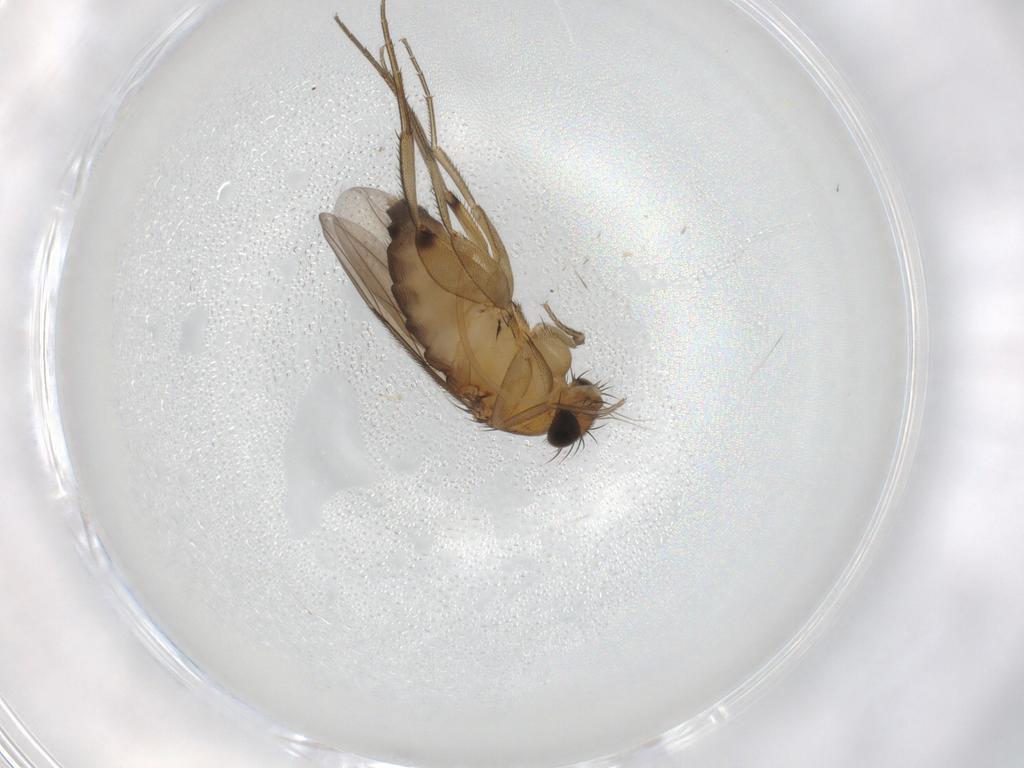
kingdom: Animalia
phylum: Arthropoda
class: Insecta
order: Diptera
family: Phoridae
